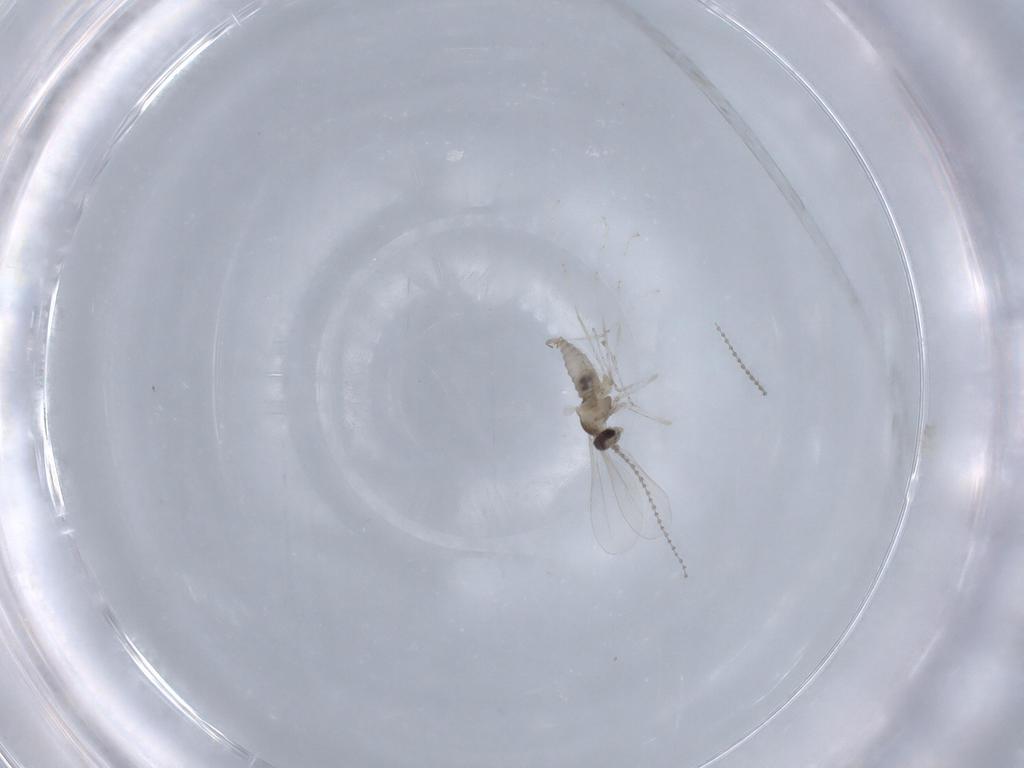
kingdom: Animalia
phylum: Arthropoda
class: Insecta
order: Diptera
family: Cecidomyiidae
